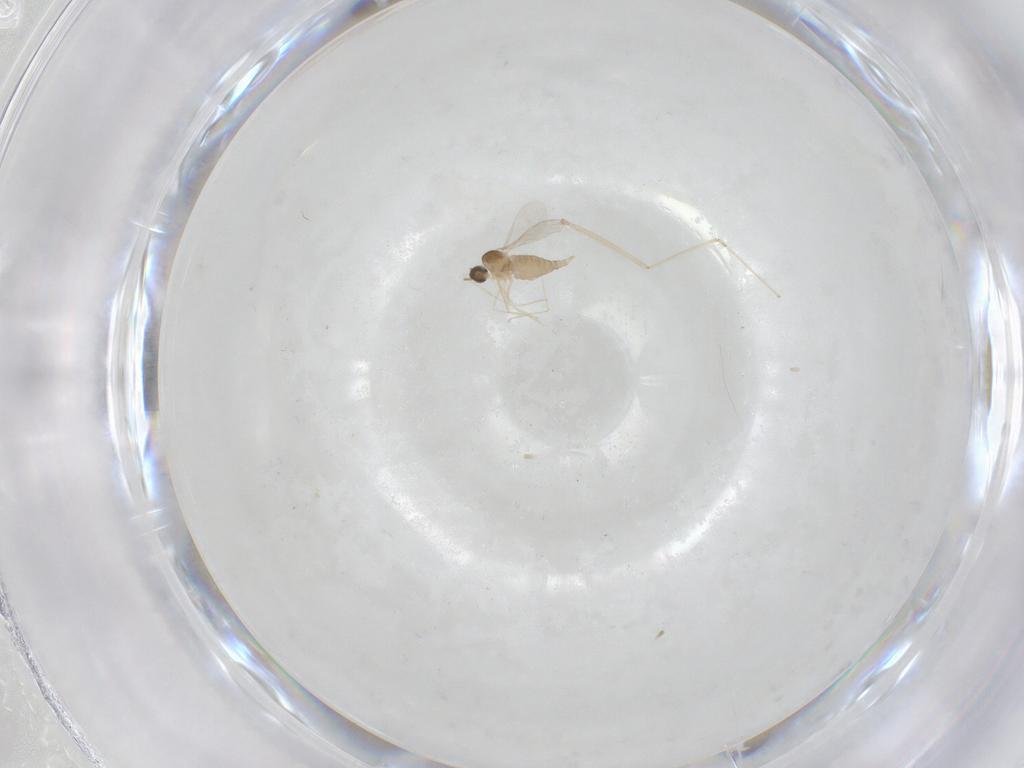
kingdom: Animalia
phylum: Arthropoda
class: Insecta
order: Diptera
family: Cecidomyiidae
